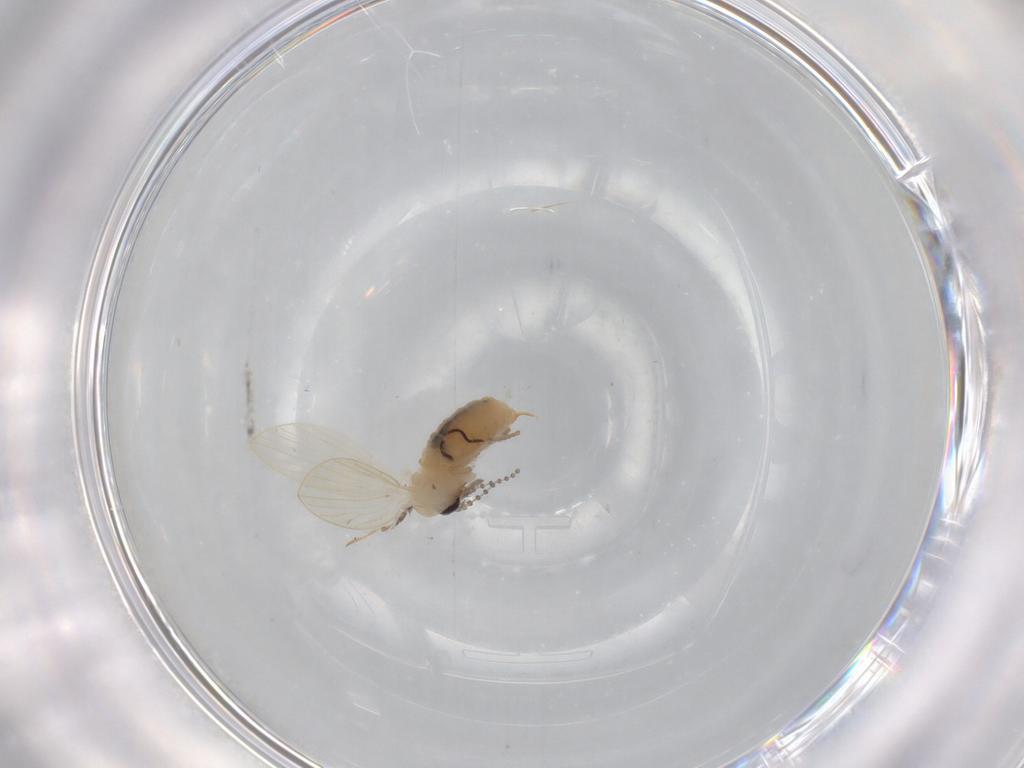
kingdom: Animalia
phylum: Arthropoda
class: Insecta
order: Diptera
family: Psychodidae
